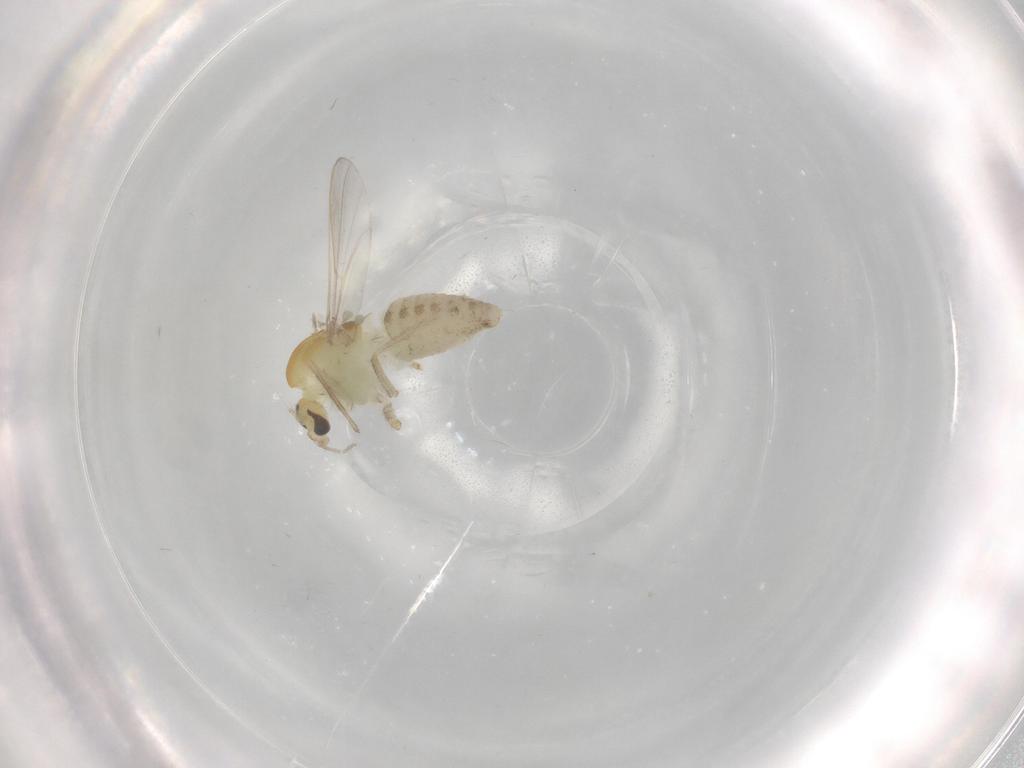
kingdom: Animalia
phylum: Arthropoda
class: Insecta
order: Diptera
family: Chironomidae
